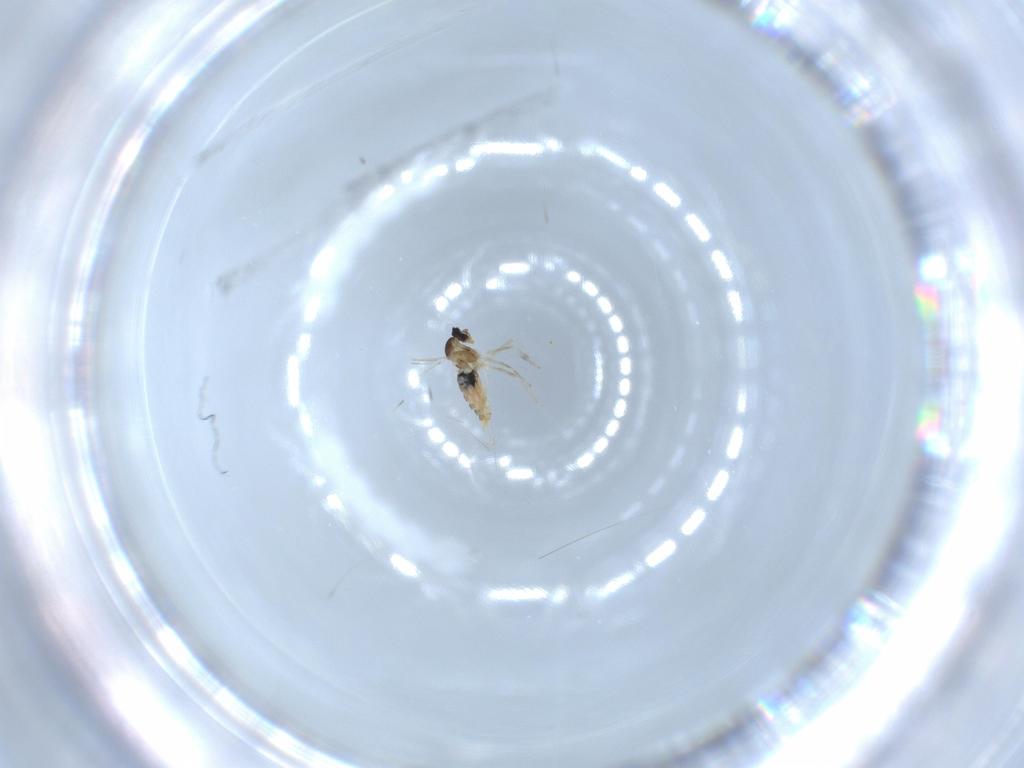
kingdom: Animalia
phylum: Arthropoda
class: Insecta
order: Diptera
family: Cecidomyiidae
